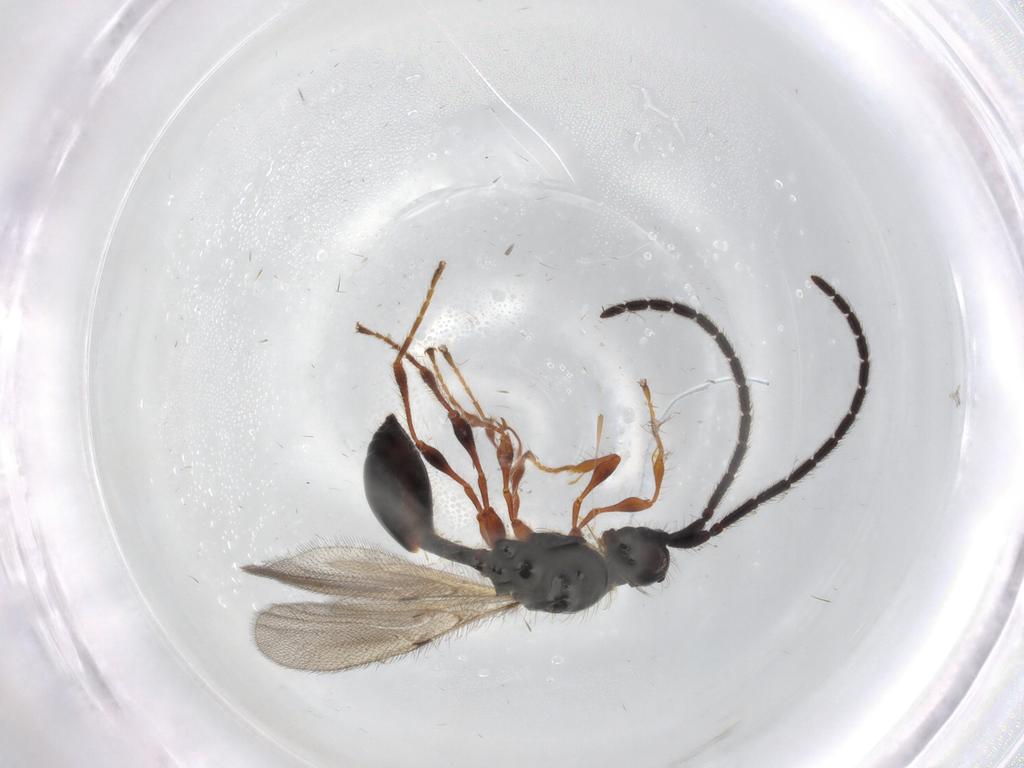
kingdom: Animalia
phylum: Arthropoda
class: Insecta
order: Hymenoptera
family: Diapriidae
